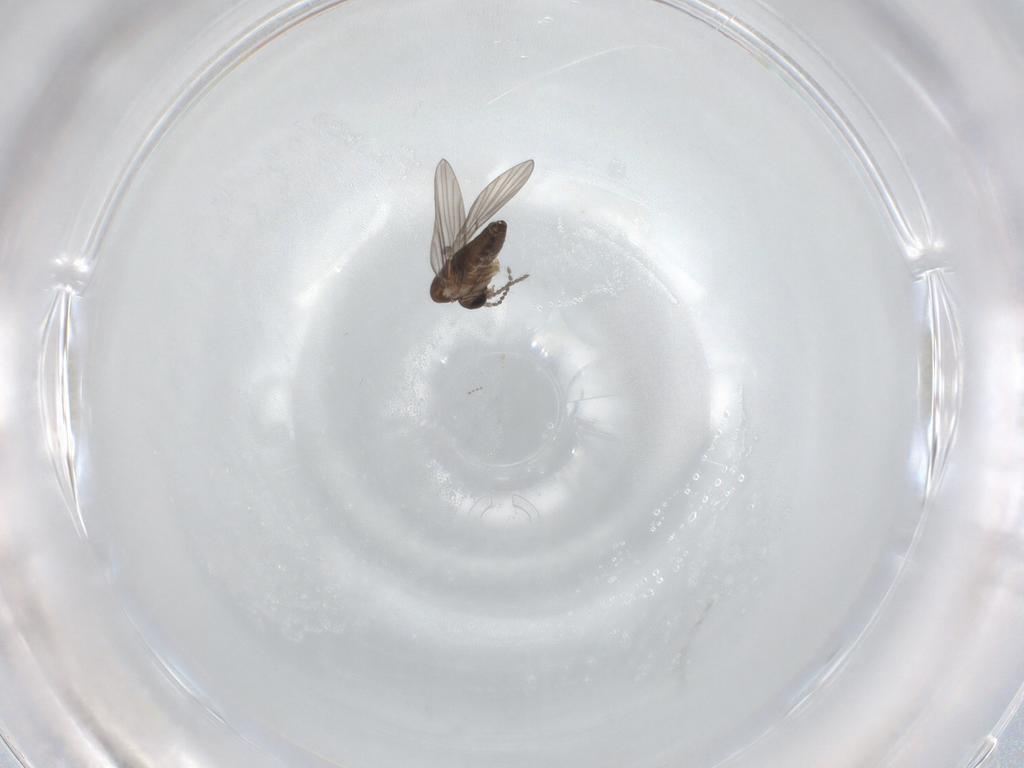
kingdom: Animalia
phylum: Arthropoda
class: Insecta
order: Diptera
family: Psychodidae
